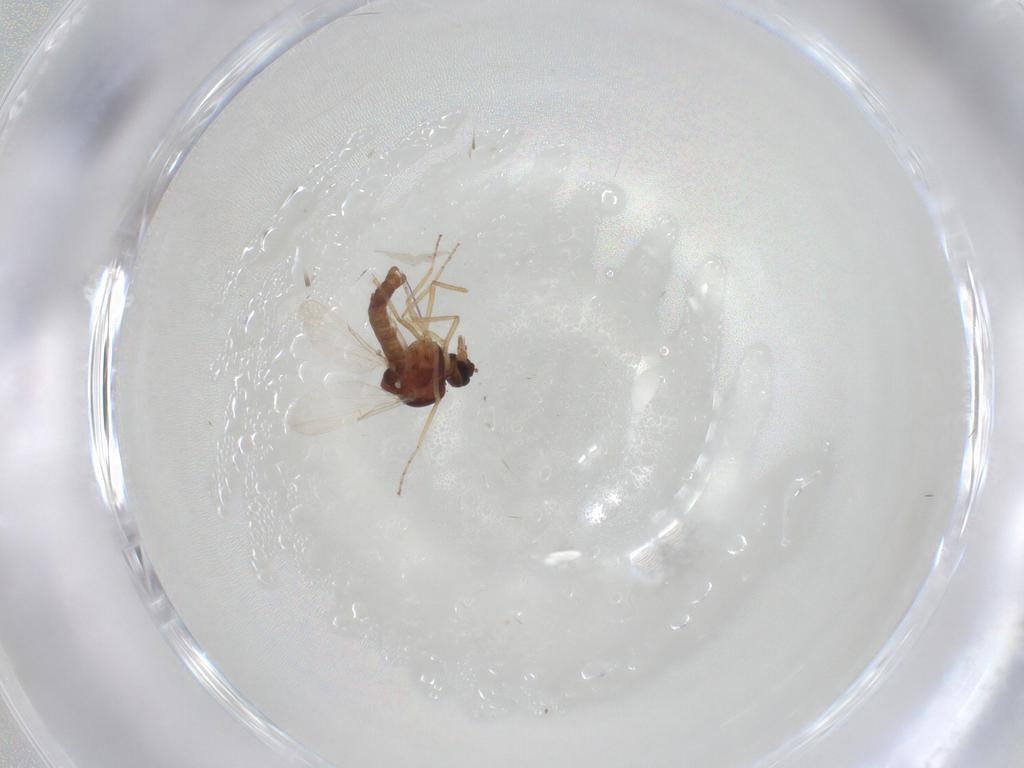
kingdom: Animalia
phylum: Arthropoda
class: Insecta
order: Diptera
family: Ceratopogonidae
